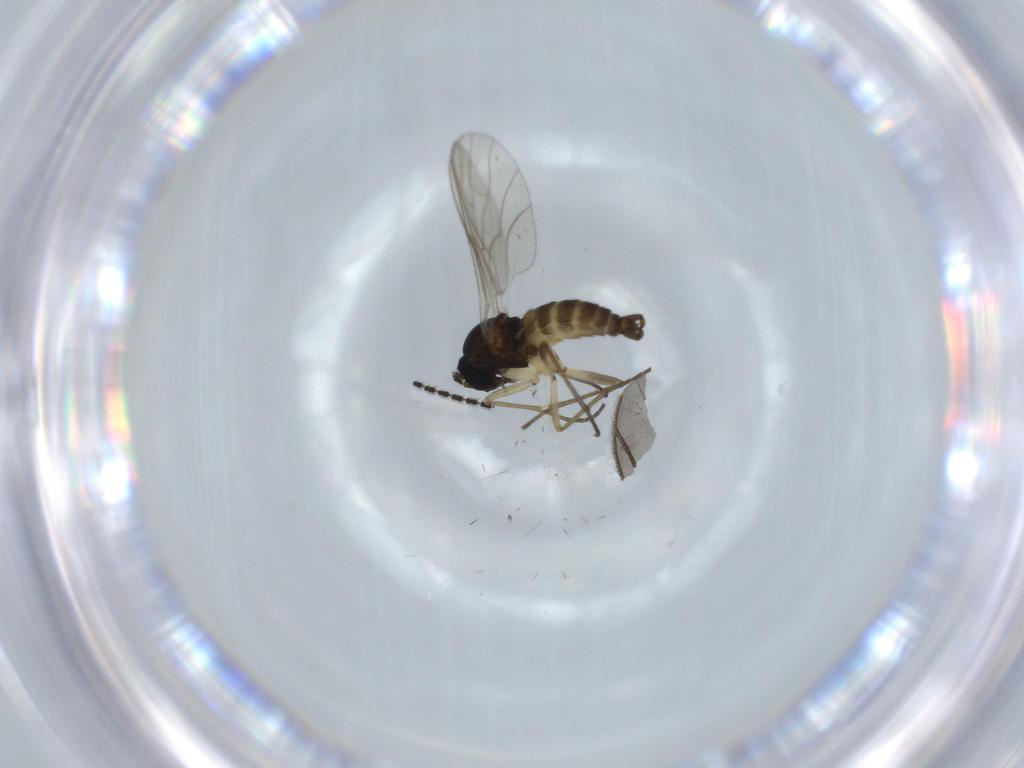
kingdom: Animalia
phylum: Arthropoda
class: Insecta
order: Diptera
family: Sciaridae
